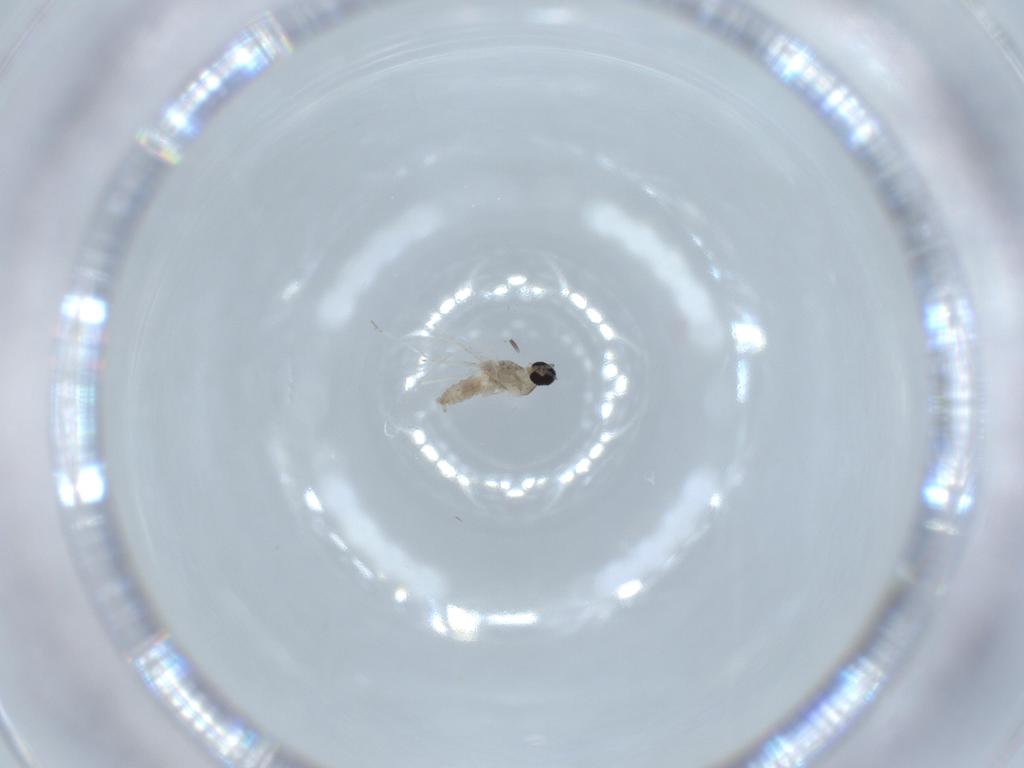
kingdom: Animalia
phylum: Arthropoda
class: Insecta
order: Diptera
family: Cecidomyiidae
